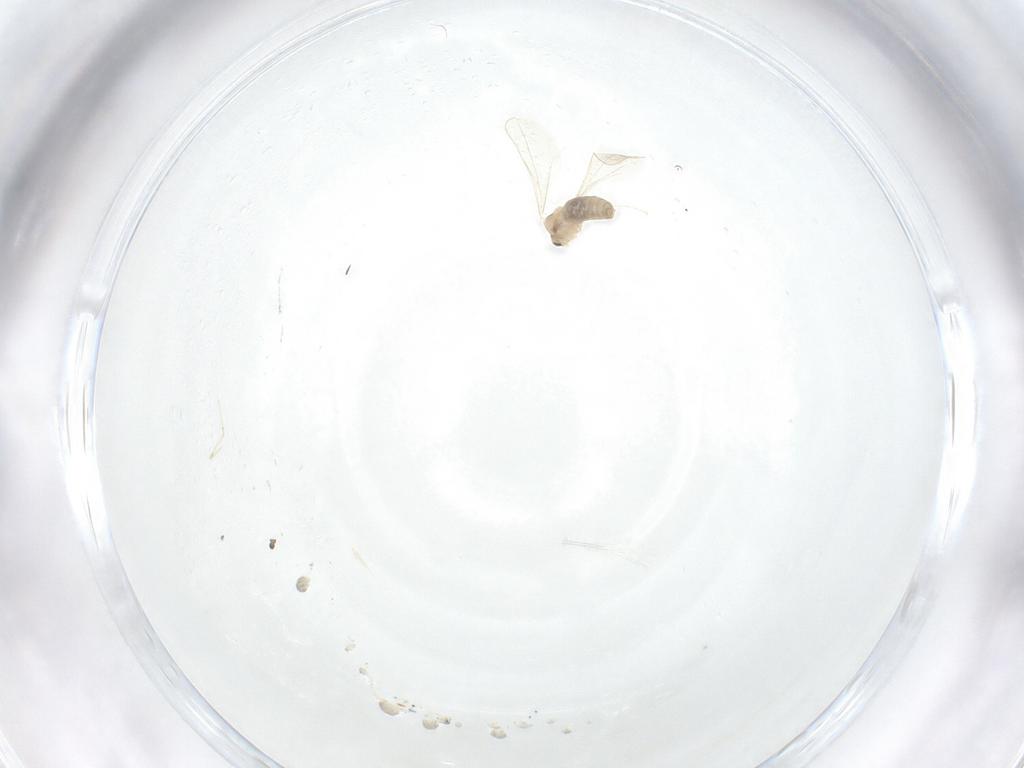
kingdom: Animalia
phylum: Arthropoda
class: Insecta
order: Diptera
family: Cecidomyiidae
